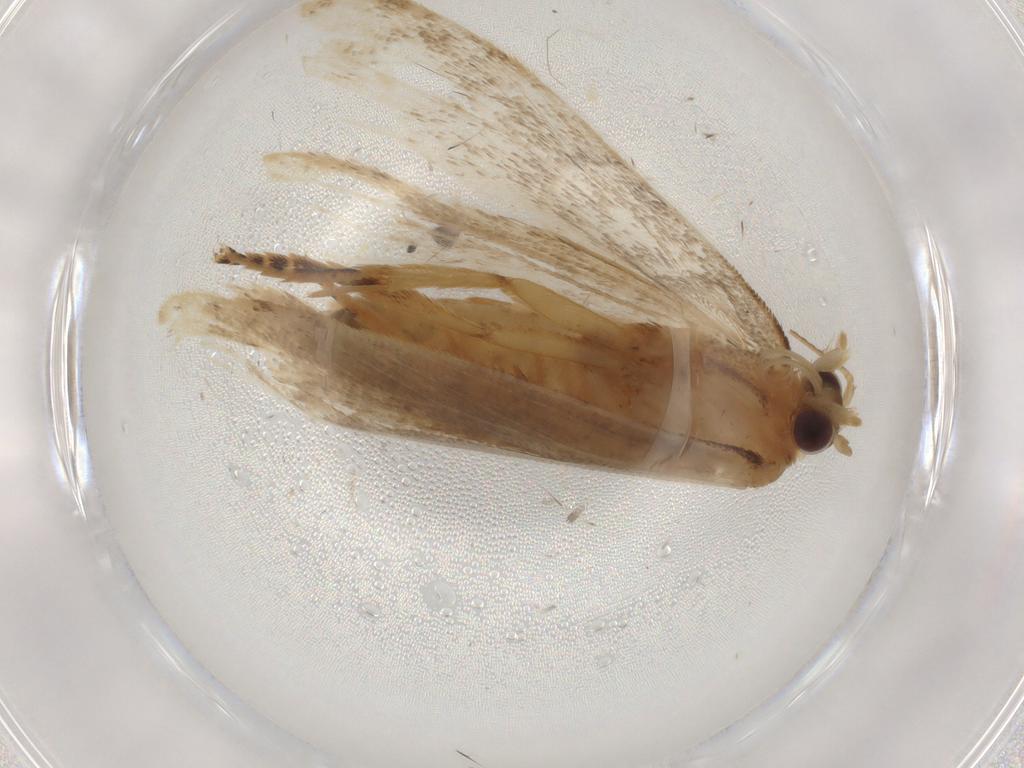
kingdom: Animalia
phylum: Arthropoda
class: Insecta
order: Lepidoptera
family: Tortricidae
